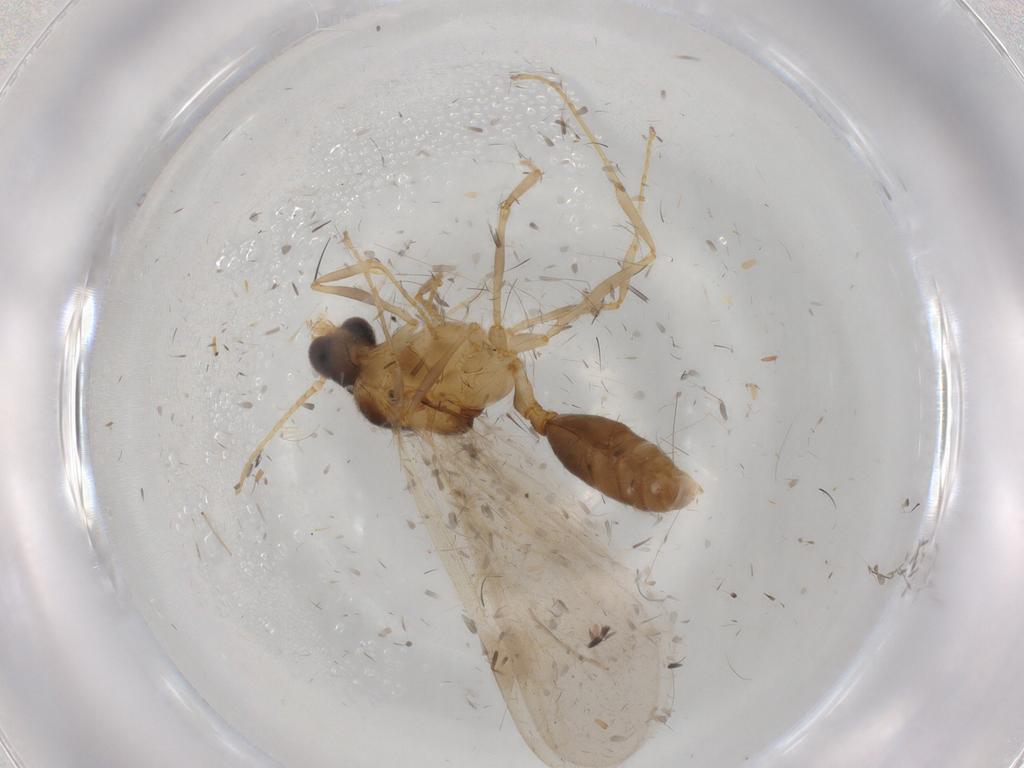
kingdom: Animalia
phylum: Arthropoda
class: Insecta
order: Hymenoptera
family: Formicidae
